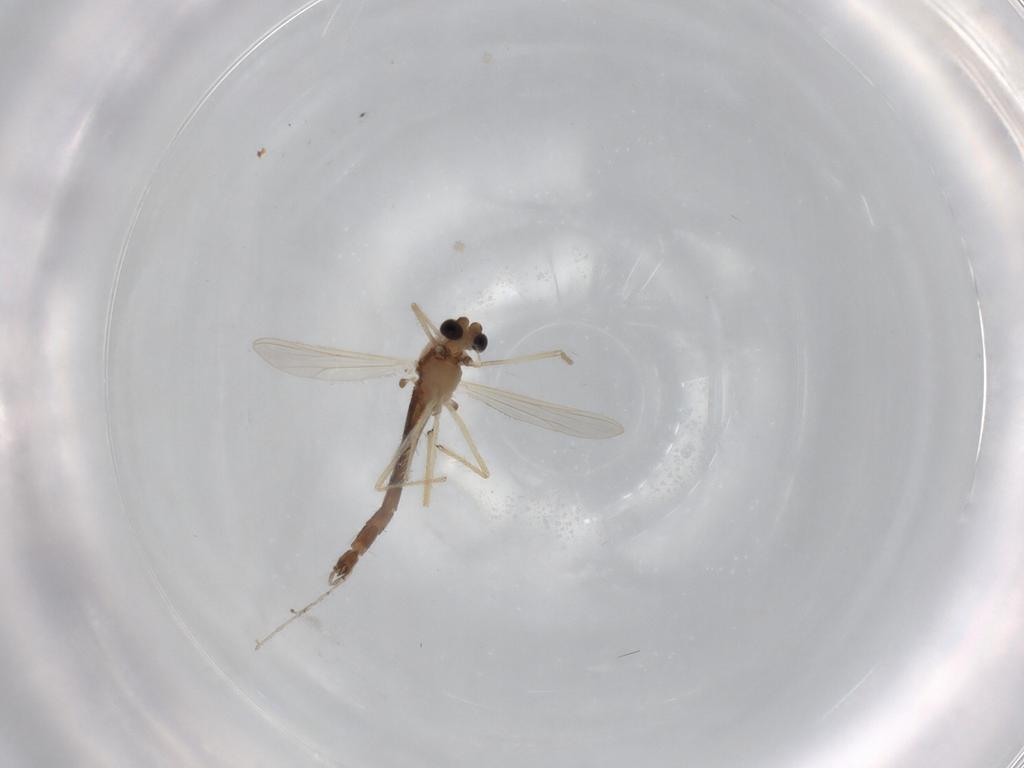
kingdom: Animalia
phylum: Arthropoda
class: Insecta
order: Diptera
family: Chironomidae
